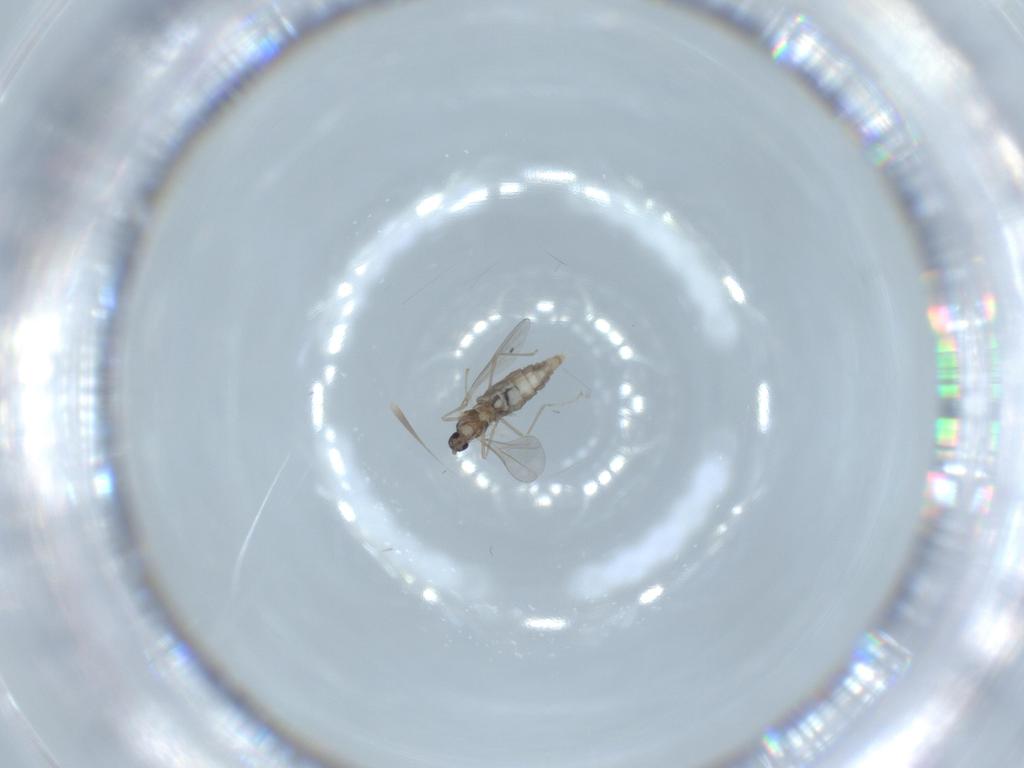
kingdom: Animalia
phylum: Arthropoda
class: Insecta
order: Diptera
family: Cecidomyiidae
